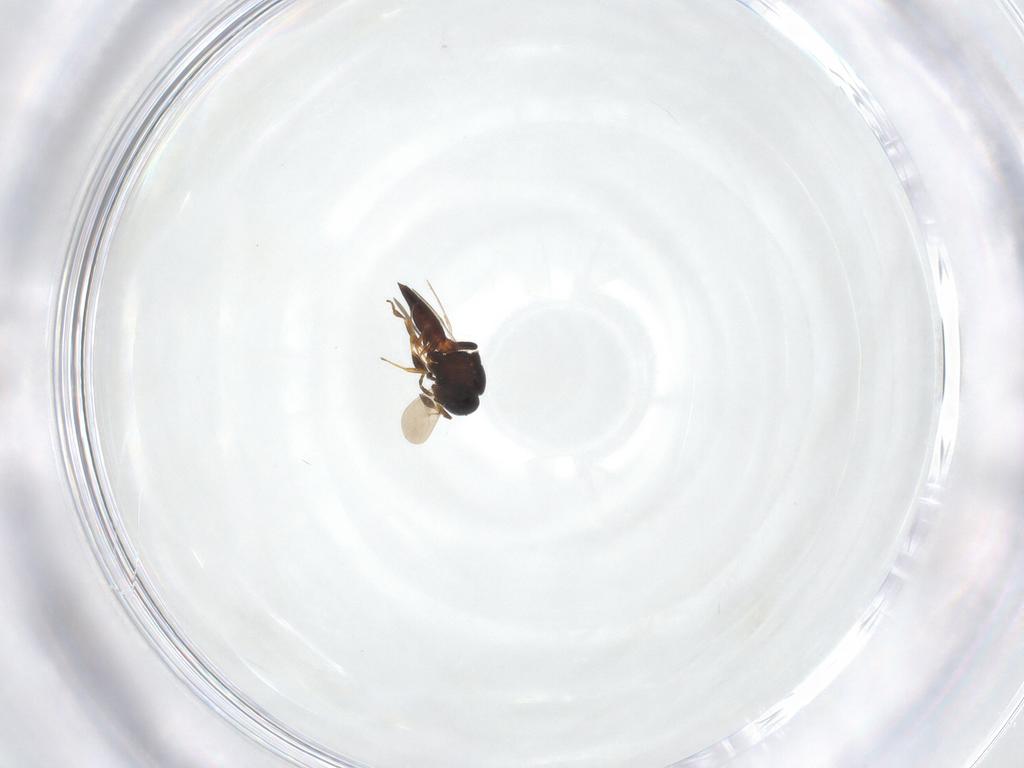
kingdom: Animalia
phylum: Arthropoda
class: Insecta
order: Hymenoptera
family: Scelionidae
